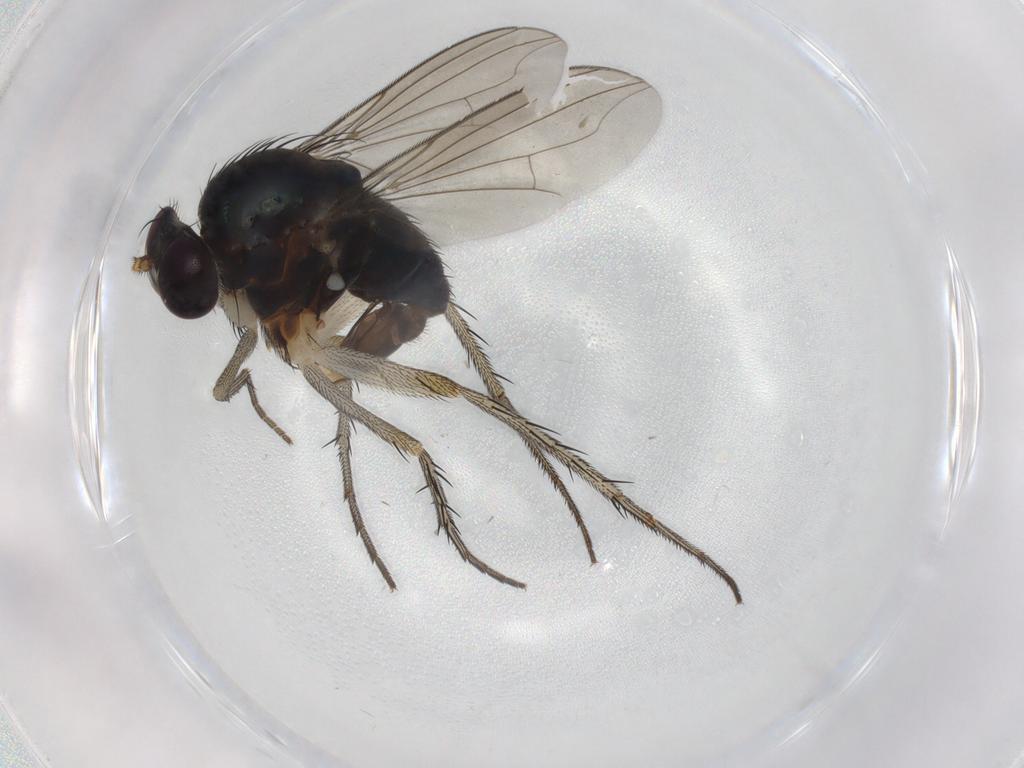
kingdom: Animalia
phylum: Arthropoda
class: Insecta
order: Diptera
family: Dolichopodidae
